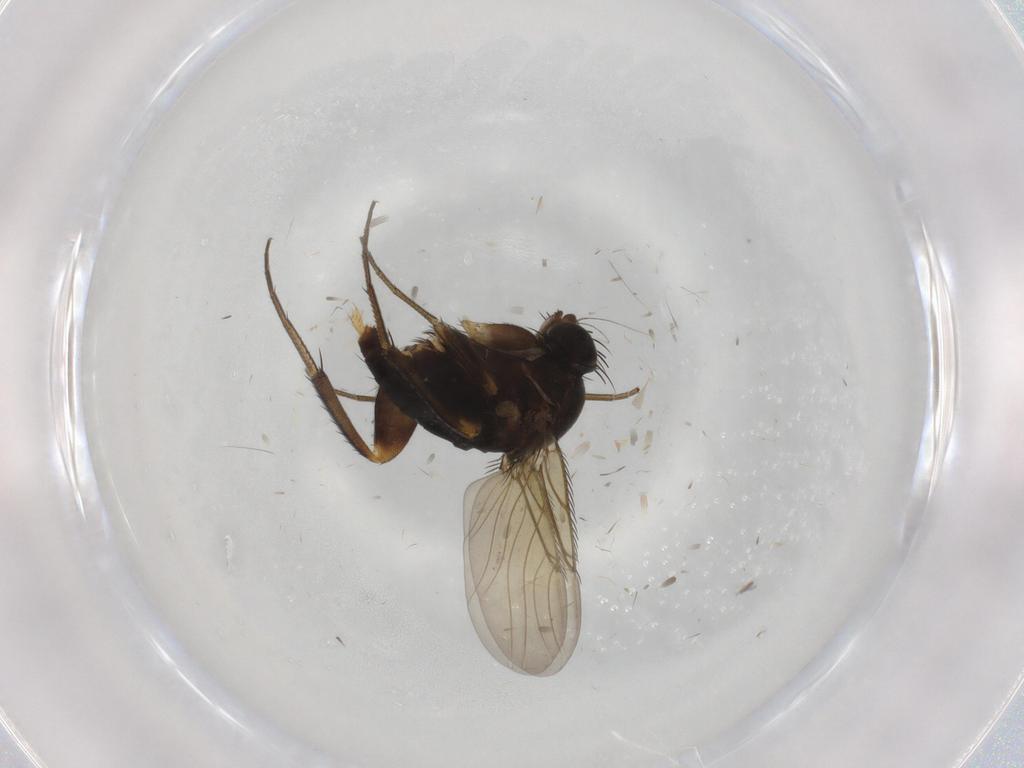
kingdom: Animalia
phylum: Arthropoda
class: Insecta
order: Diptera
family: Phoridae
